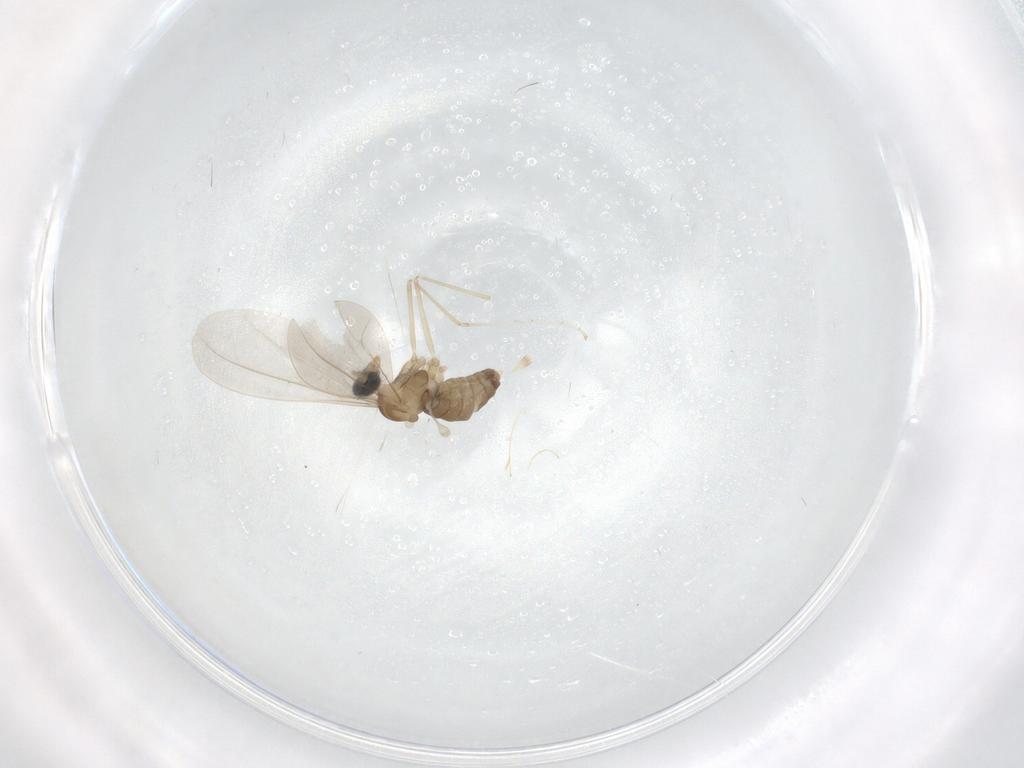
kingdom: Animalia
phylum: Arthropoda
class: Insecta
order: Diptera
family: Cecidomyiidae
